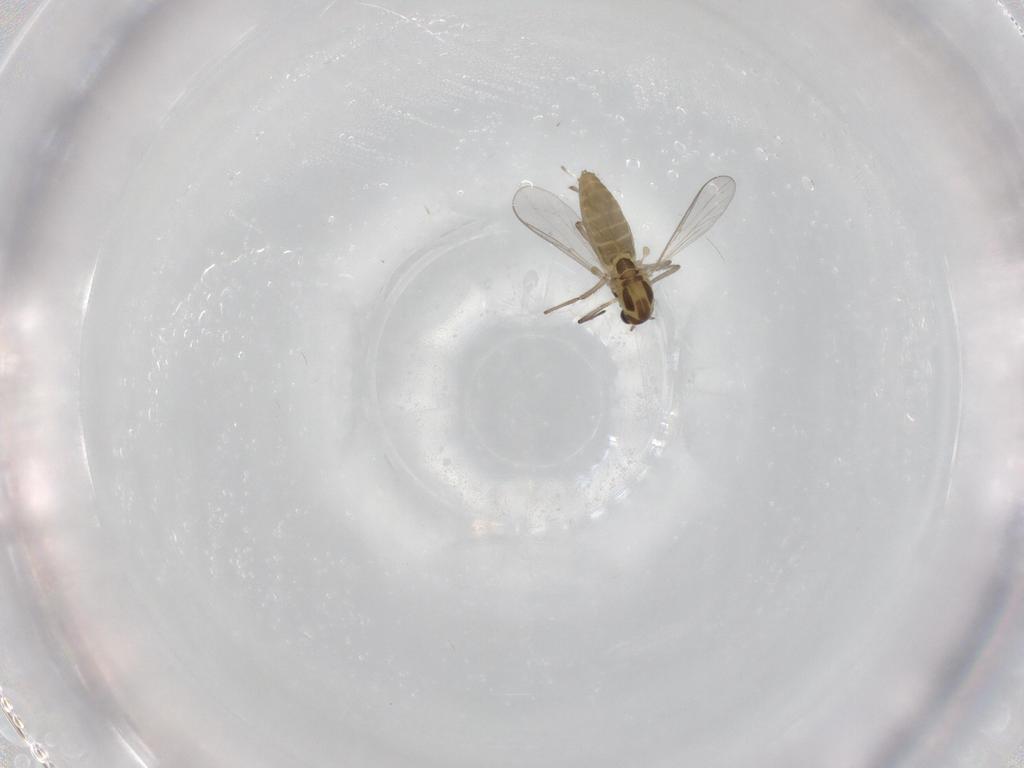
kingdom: Animalia
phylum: Arthropoda
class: Insecta
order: Diptera
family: Chironomidae
